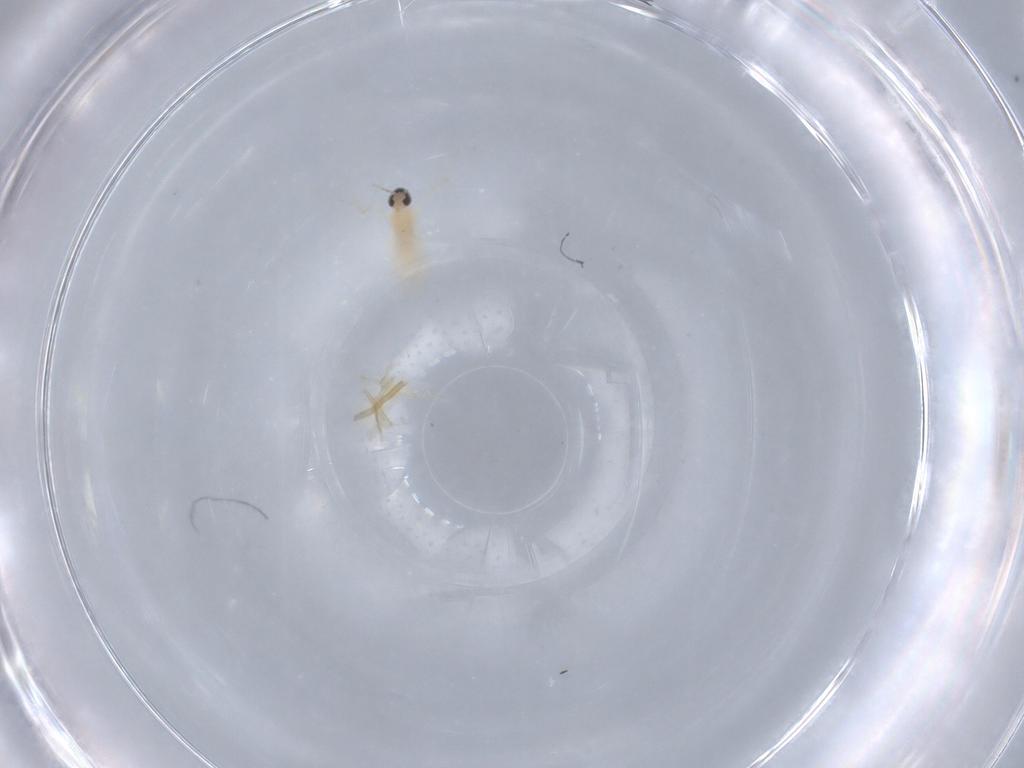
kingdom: Animalia
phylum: Arthropoda
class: Insecta
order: Diptera
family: Cecidomyiidae
